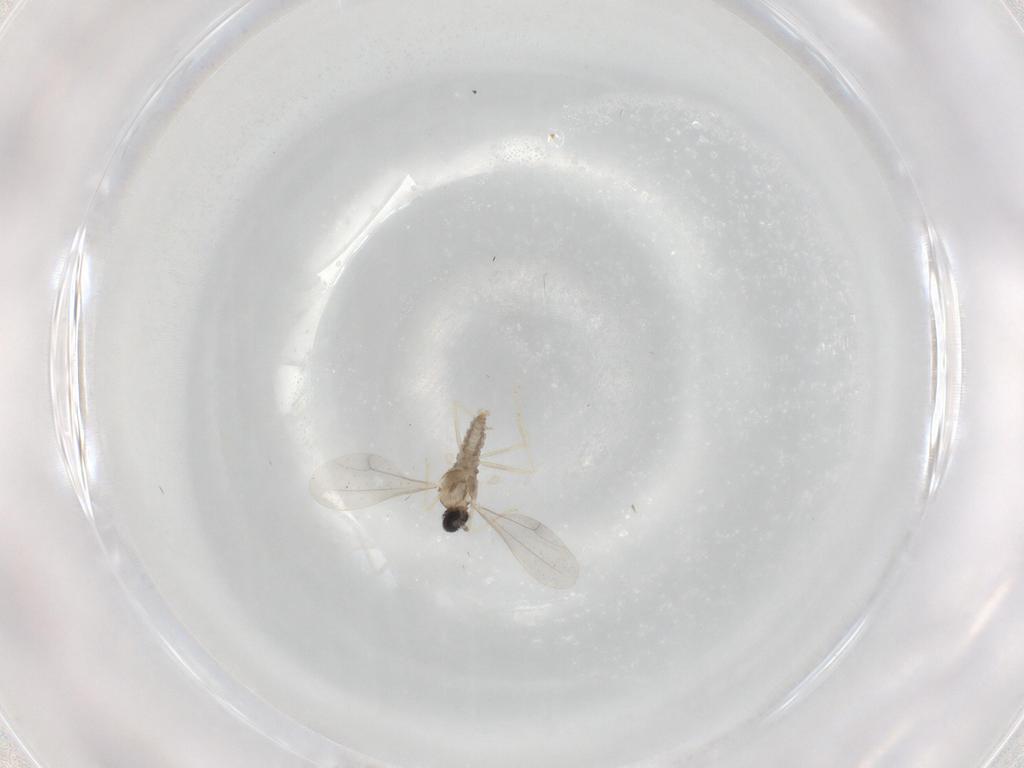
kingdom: Animalia
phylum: Arthropoda
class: Insecta
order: Diptera
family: Cecidomyiidae
